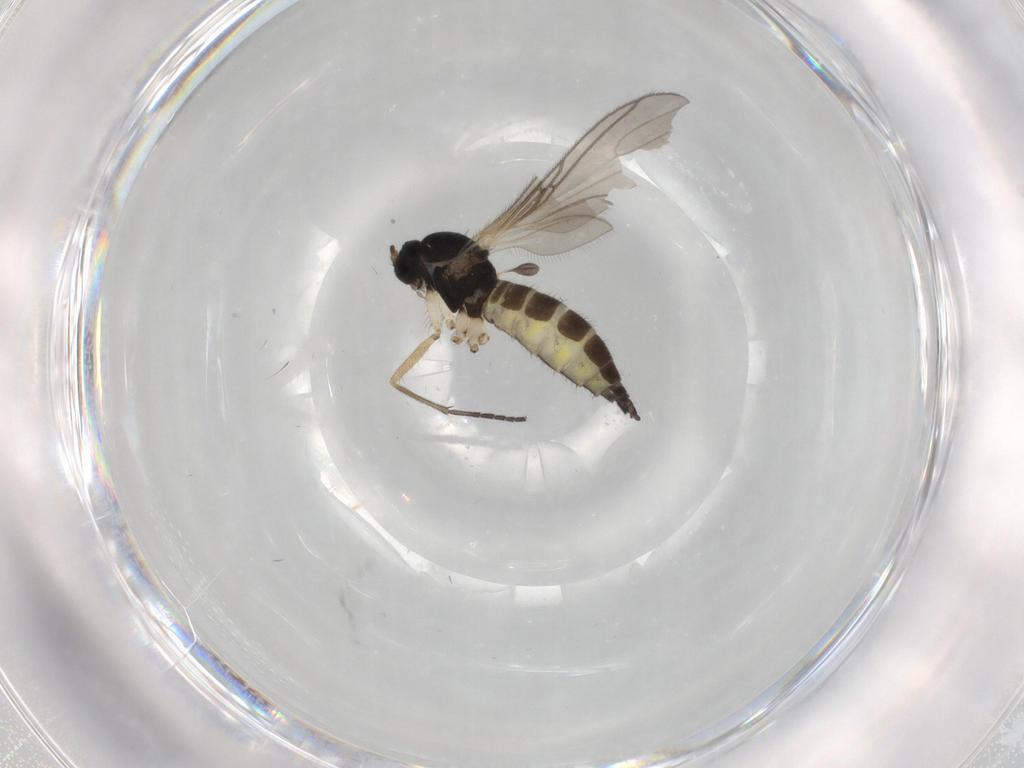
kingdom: Animalia
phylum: Arthropoda
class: Insecta
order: Diptera
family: Sciaridae
